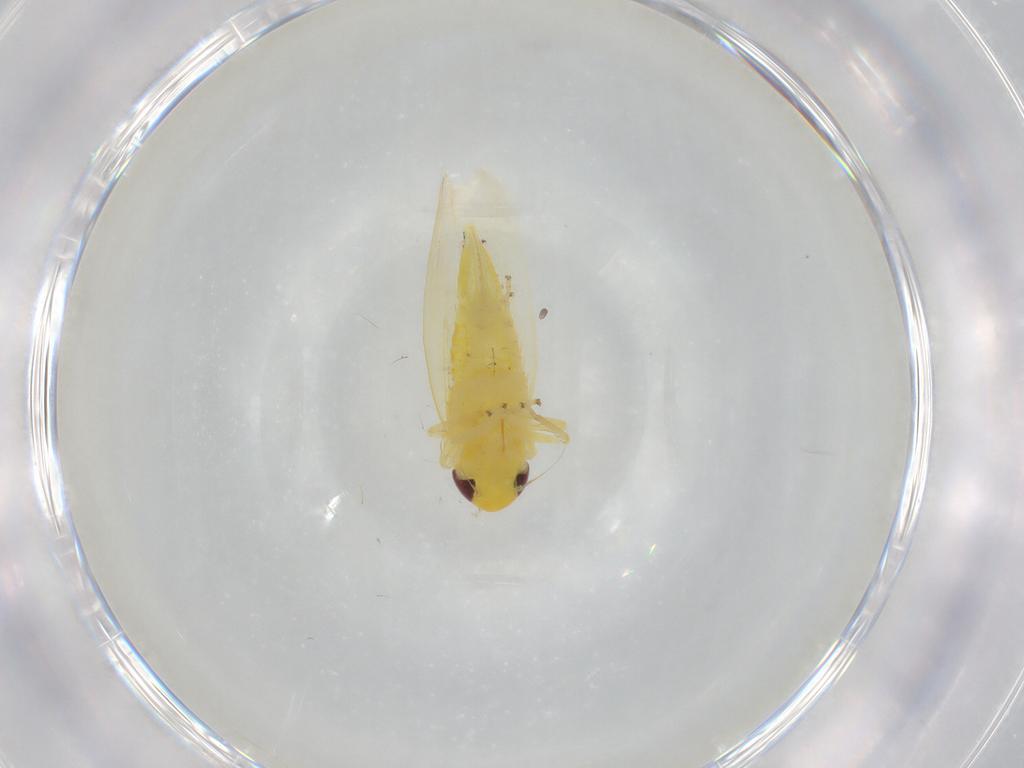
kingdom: Animalia
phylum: Arthropoda
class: Insecta
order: Hemiptera
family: Cicadellidae
